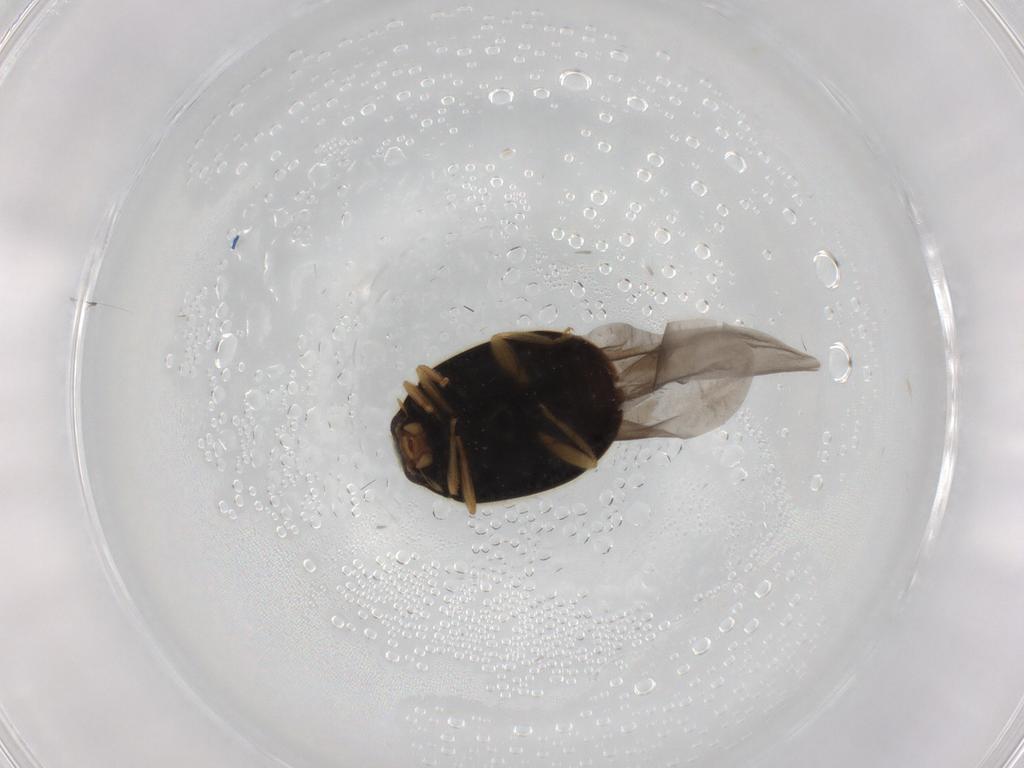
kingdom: Animalia
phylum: Arthropoda
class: Insecta
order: Coleoptera
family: Coccinellidae
